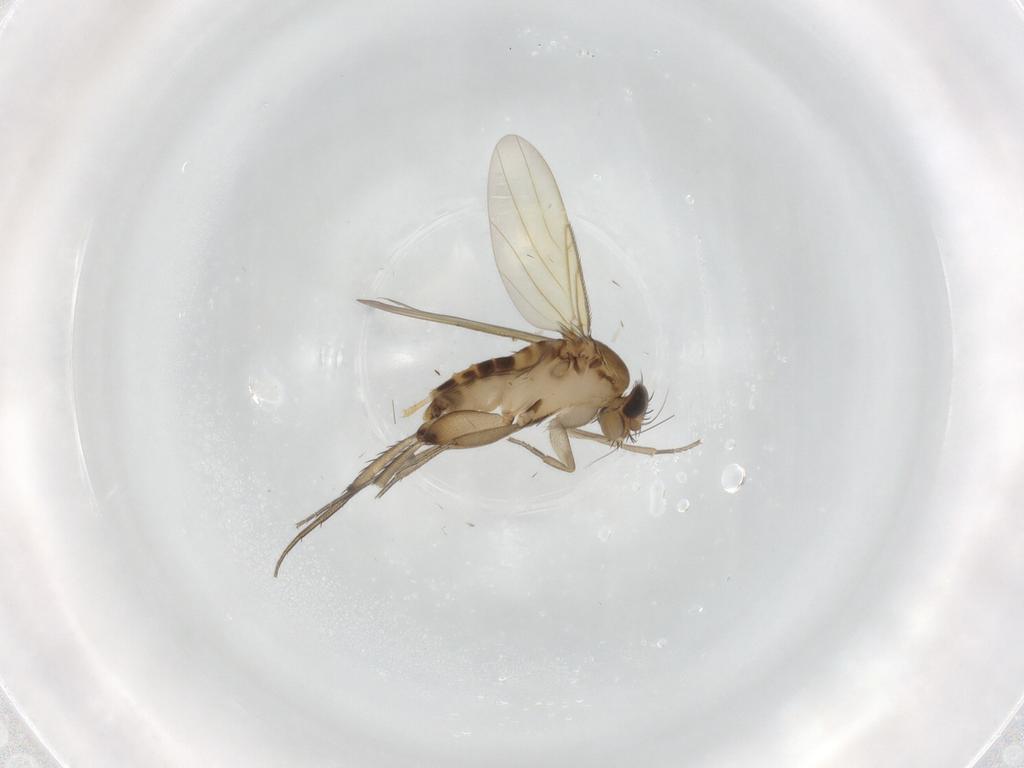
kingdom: Animalia
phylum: Arthropoda
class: Insecta
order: Diptera
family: Phoridae
